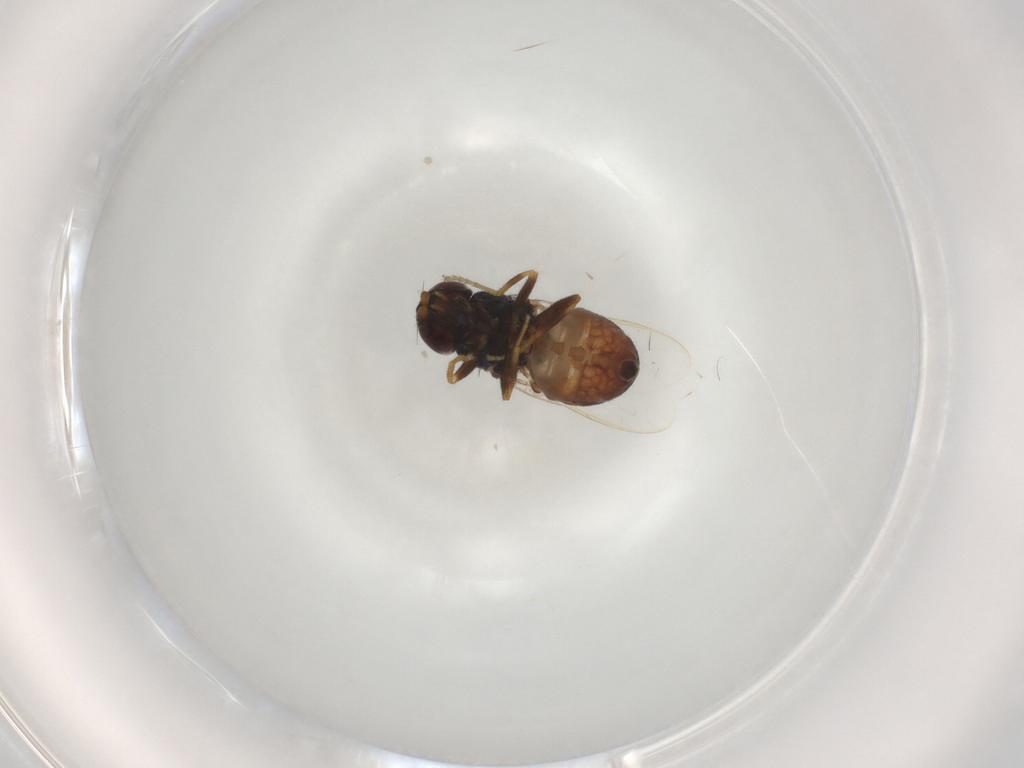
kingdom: Animalia
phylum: Arthropoda
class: Insecta
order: Diptera
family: Chloropidae
